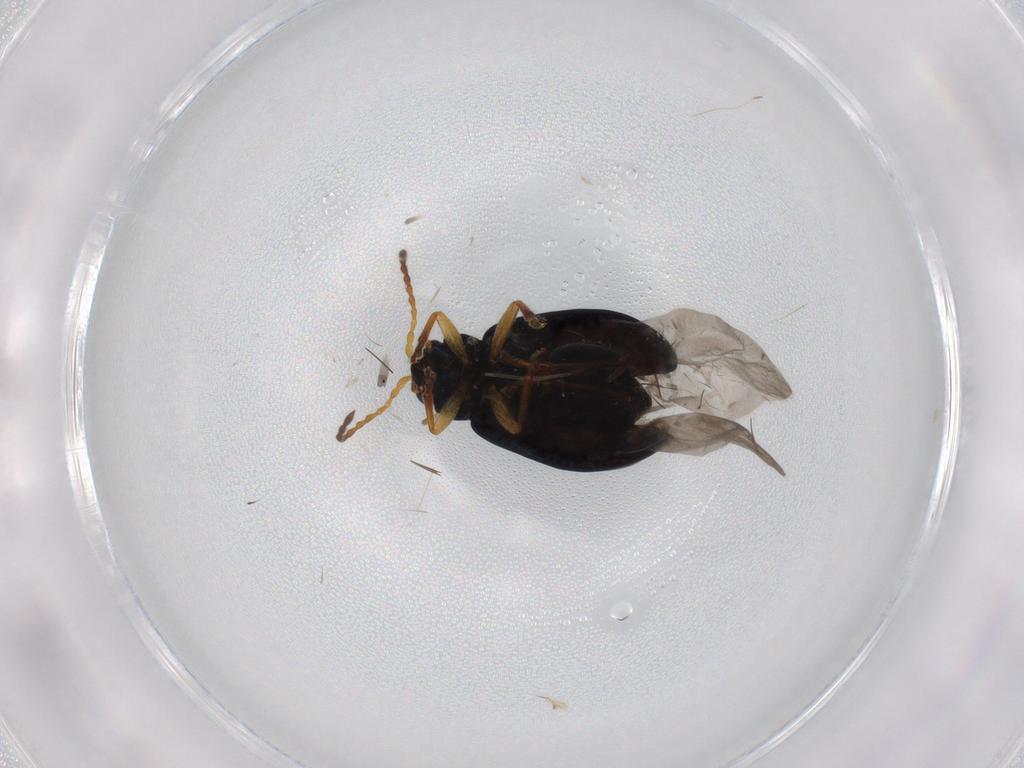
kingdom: Animalia
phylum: Arthropoda
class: Insecta
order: Coleoptera
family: Chrysomelidae
